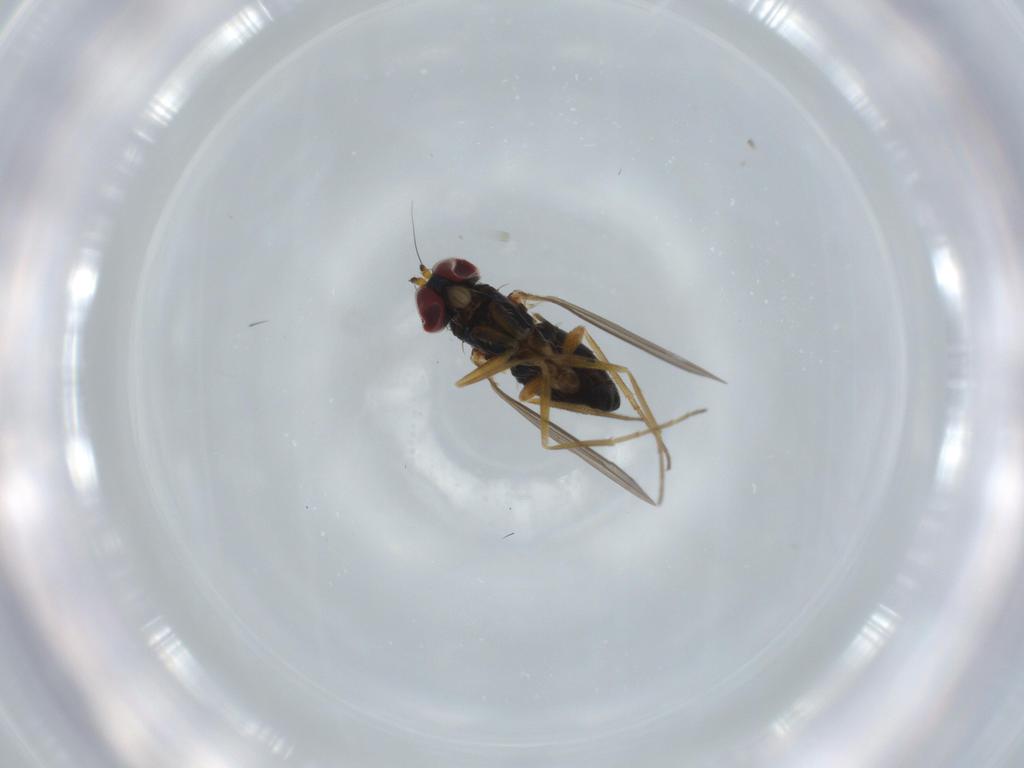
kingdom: Animalia
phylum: Arthropoda
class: Insecta
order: Diptera
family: Dolichopodidae
